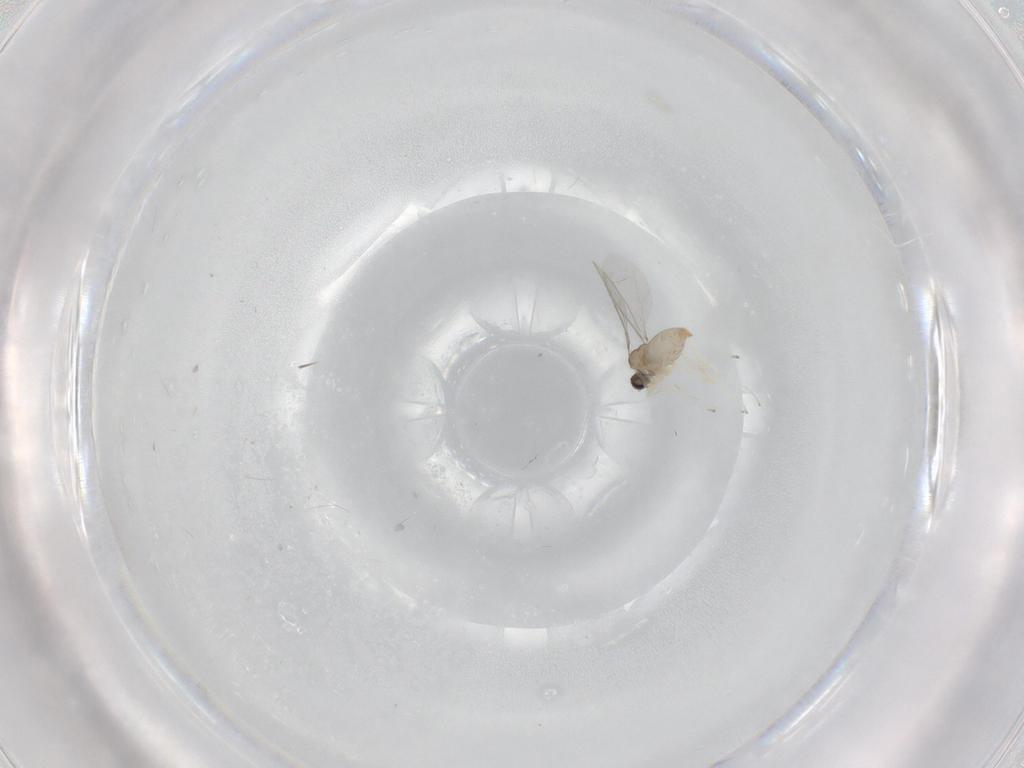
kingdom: Animalia
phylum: Arthropoda
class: Insecta
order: Diptera
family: Cecidomyiidae
